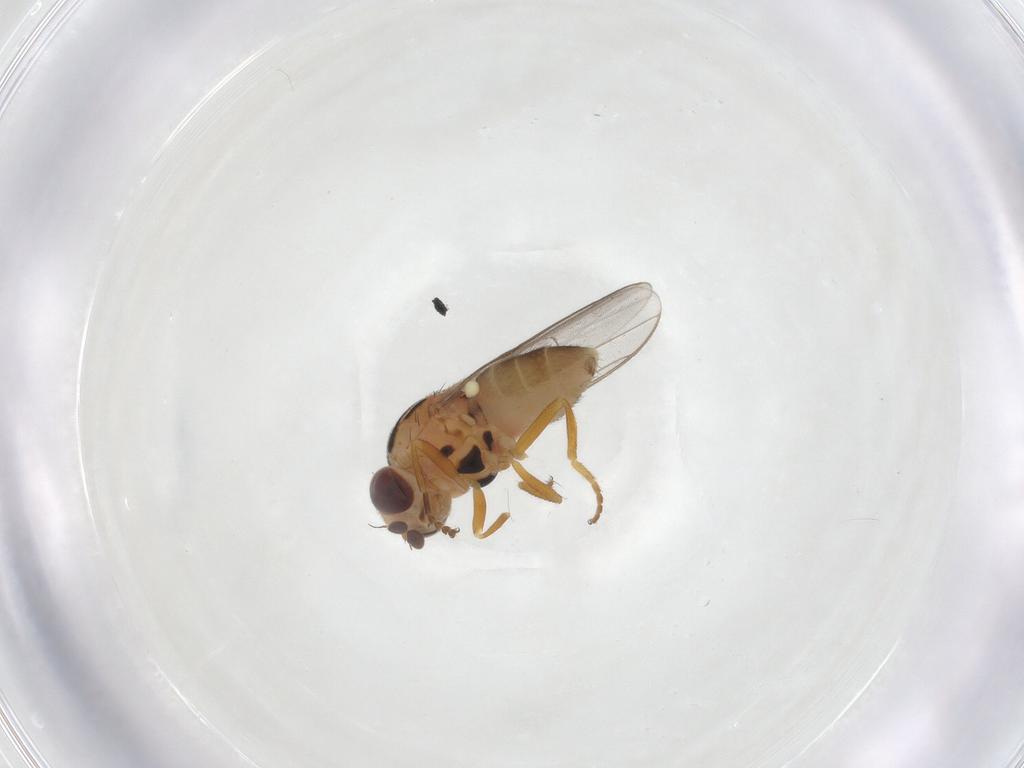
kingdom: Animalia
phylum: Arthropoda
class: Insecta
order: Diptera
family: Chloropidae
